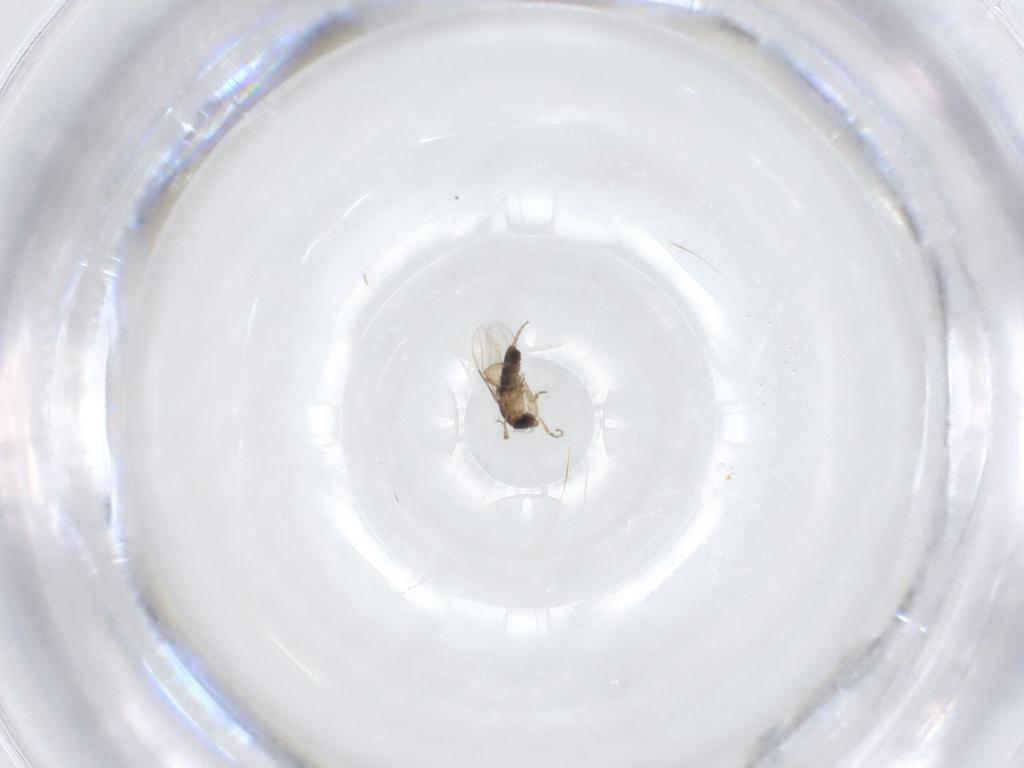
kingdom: Animalia
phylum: Arthropoda
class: Insecta
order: Diptera
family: Phoridae
